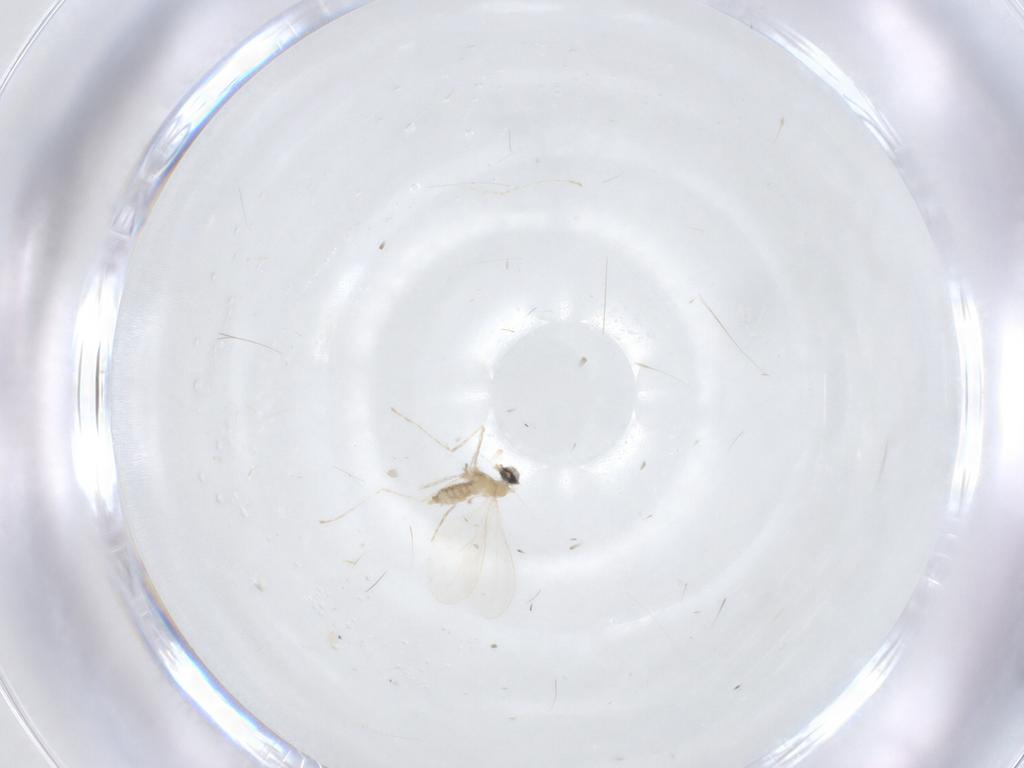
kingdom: Animalia
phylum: Arthropoda
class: Insecta
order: Diptera
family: Cecidomyiidae
